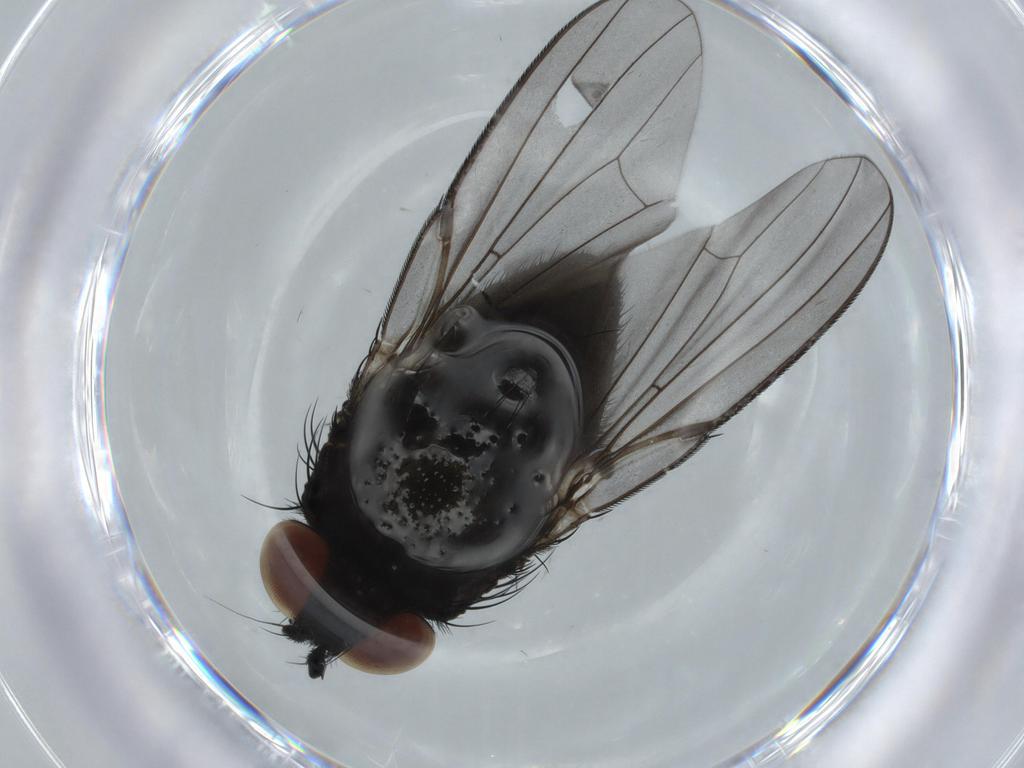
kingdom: Animalia
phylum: Arthropoda
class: Insecta
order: Diptera
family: Milichiidae
